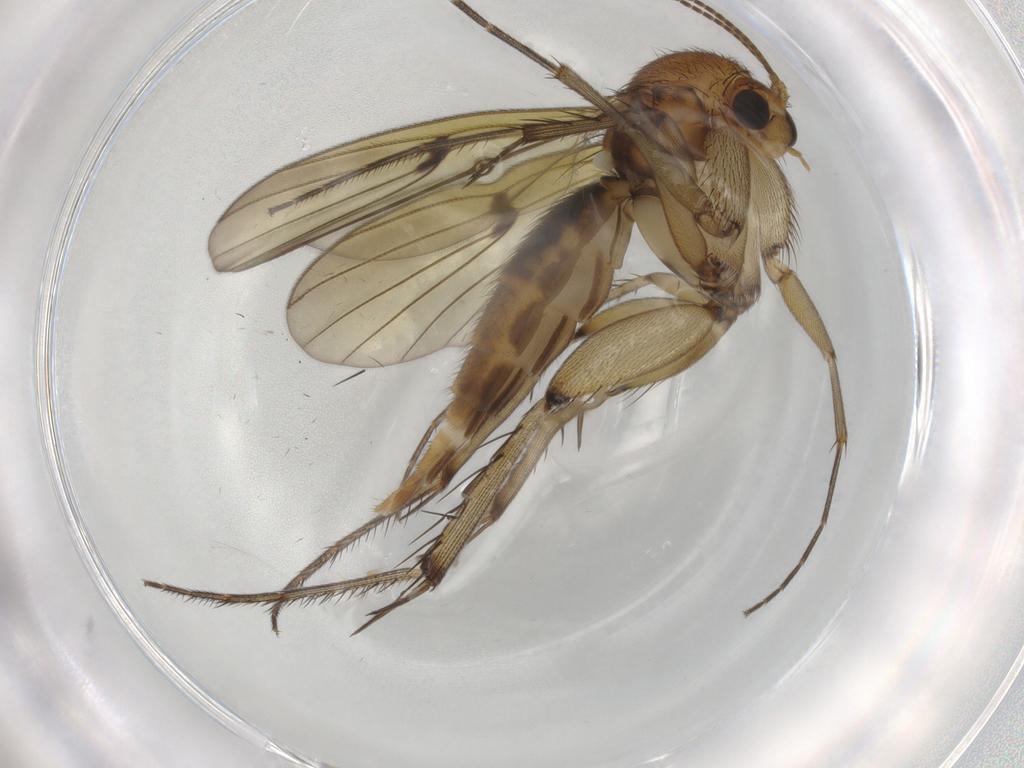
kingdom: Animalia
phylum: Arthropoda
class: Insecta
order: Diptera
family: Mycetophilidae
